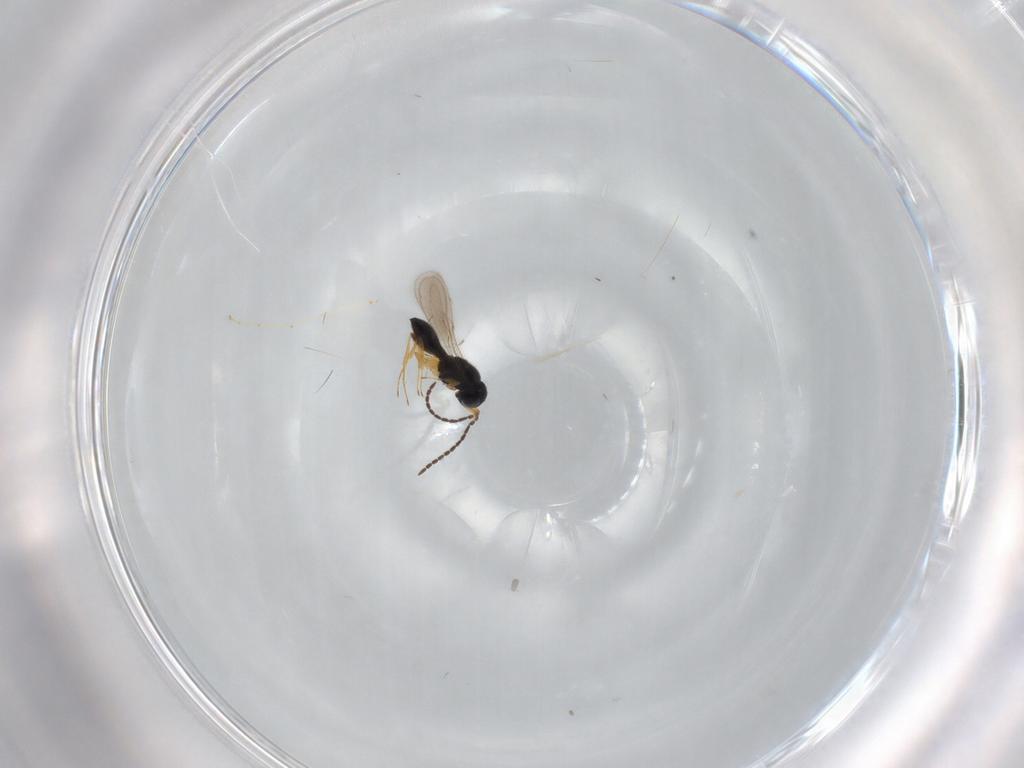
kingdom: Animalia
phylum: Arthropoda
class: Insecta
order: Hymenoptera
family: Scelionidae
